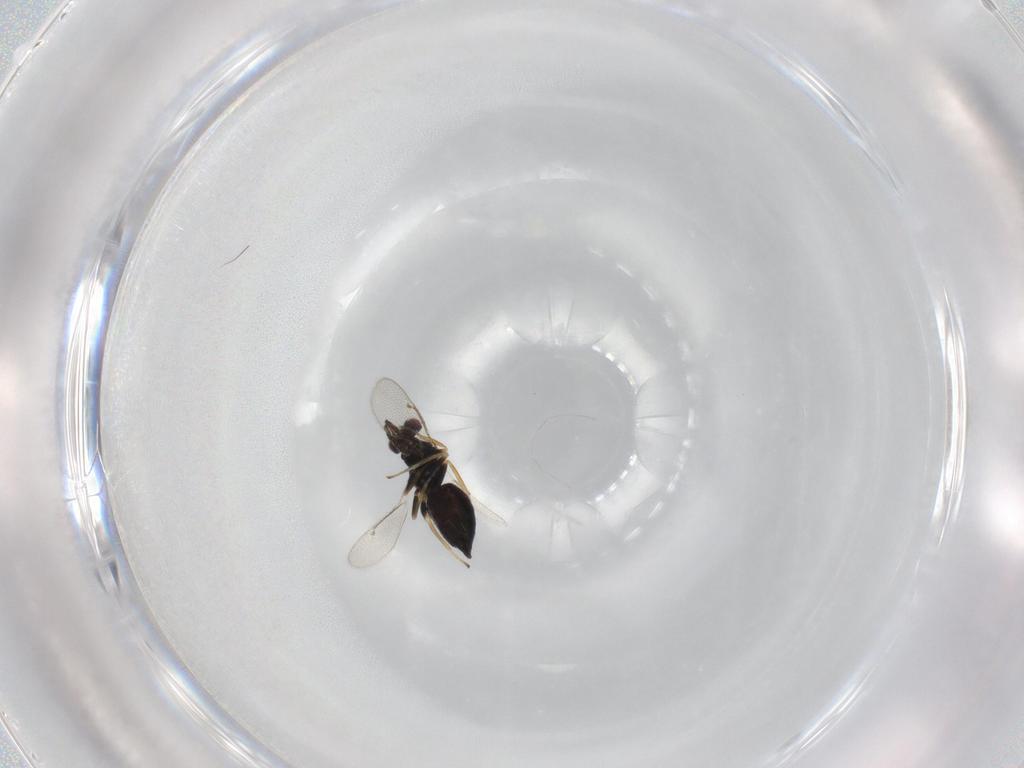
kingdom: Animalia
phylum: Arthropoda
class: Insecta
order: Hymenoptera
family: Eulophidae
